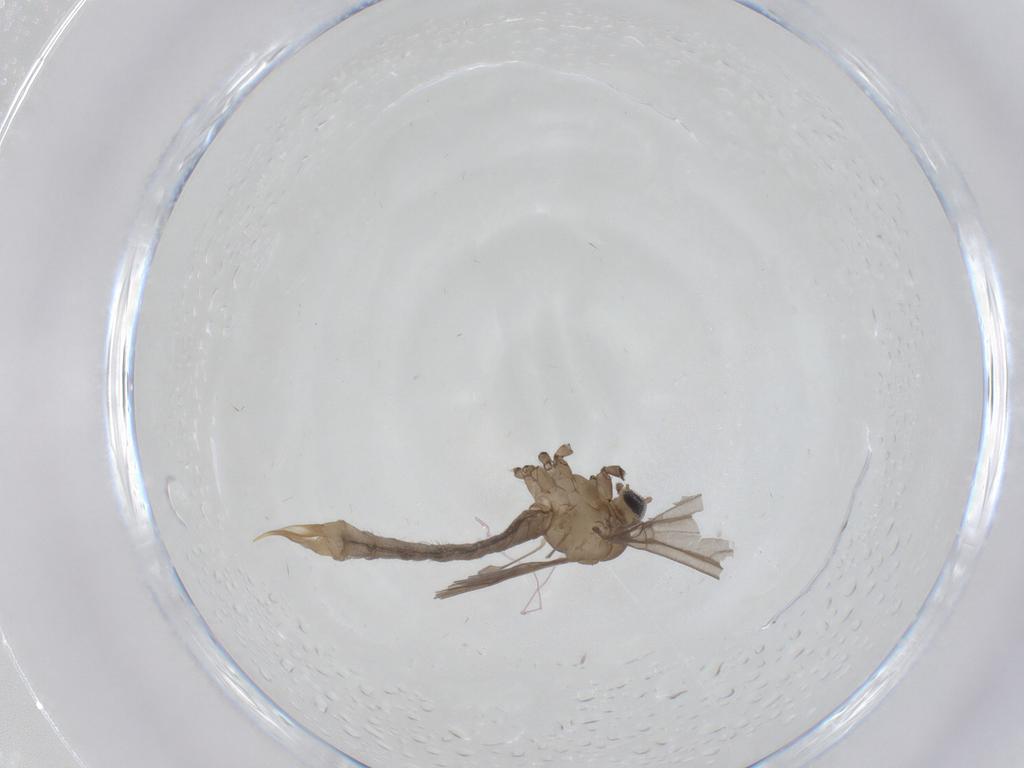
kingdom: Animalia
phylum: Arthropoda
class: Insecta
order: Diptera
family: Limoniidae
